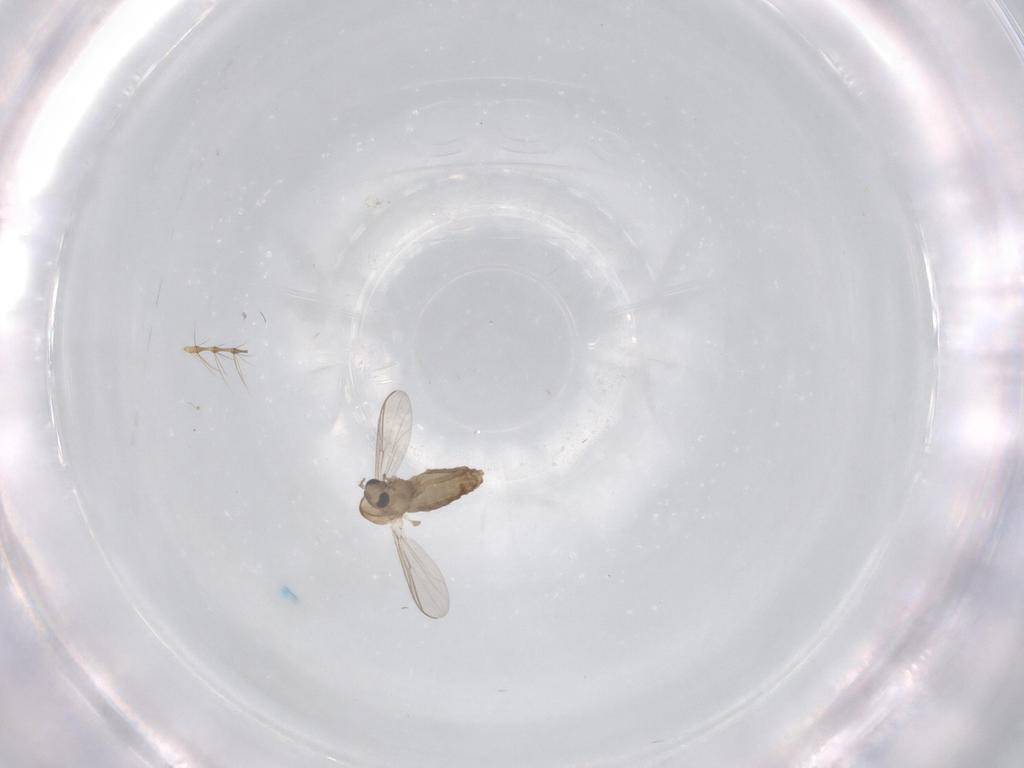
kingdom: Animalia
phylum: Arthropoda
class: Insecta
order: Diptera
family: Chironomidae
